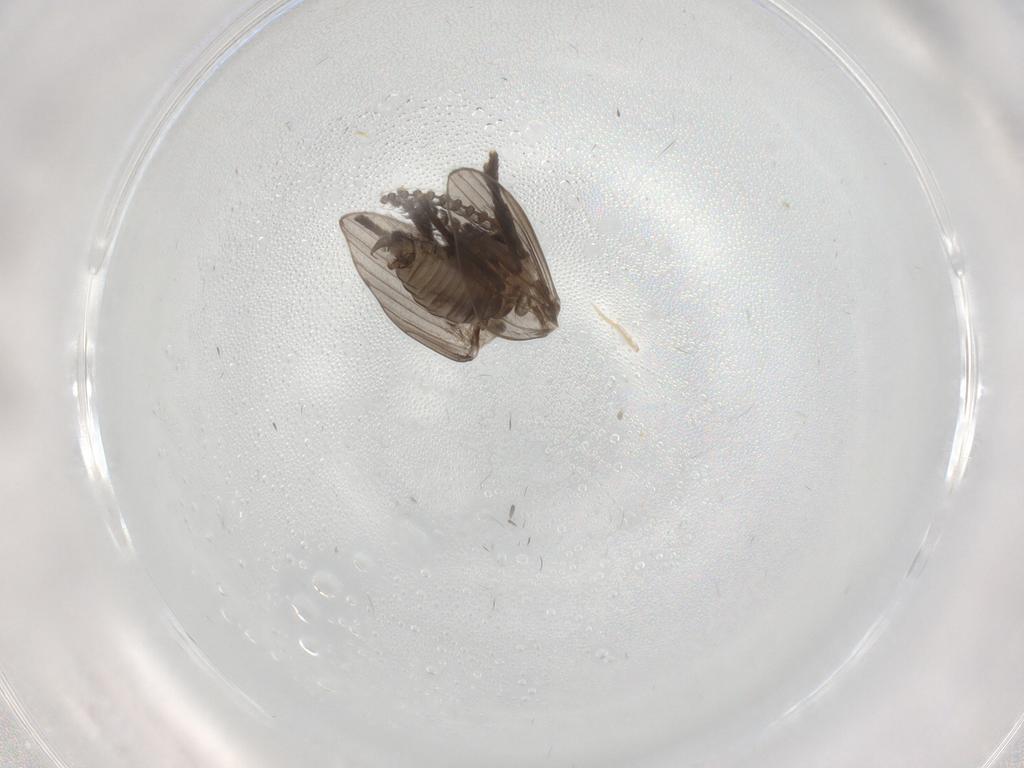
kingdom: Animalia
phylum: Arthropoda
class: Insecta
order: Diptera
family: Psychodidae
